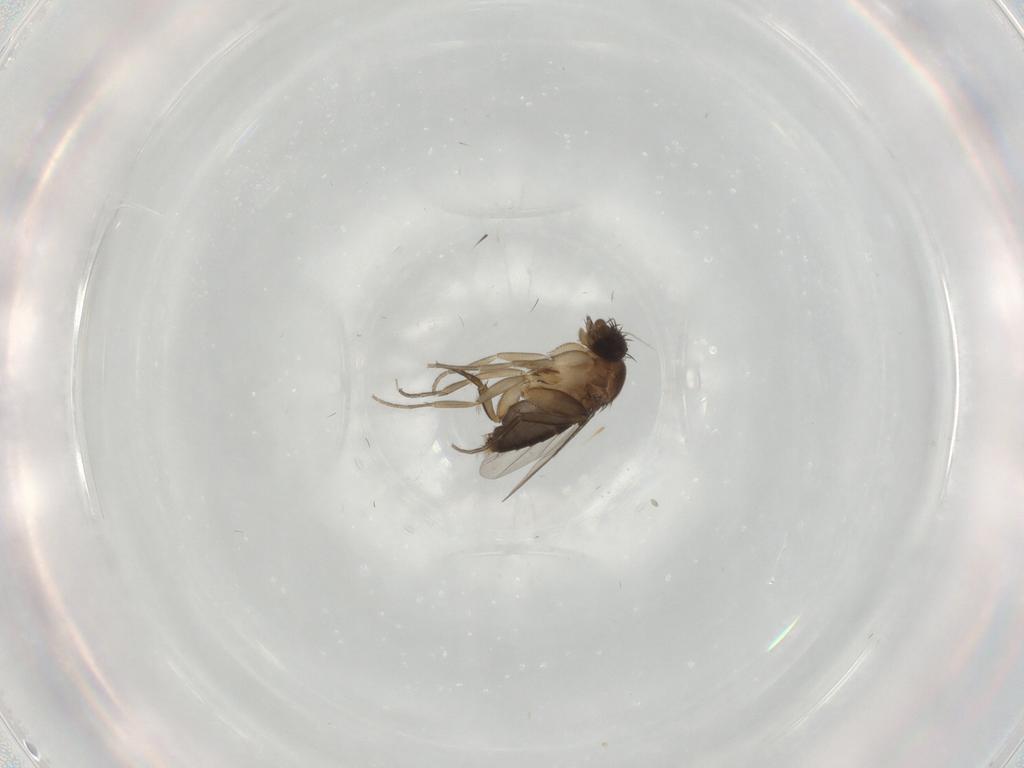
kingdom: Animalia
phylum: Arthropoda
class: Insecta
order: Diptera
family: Phoridae
